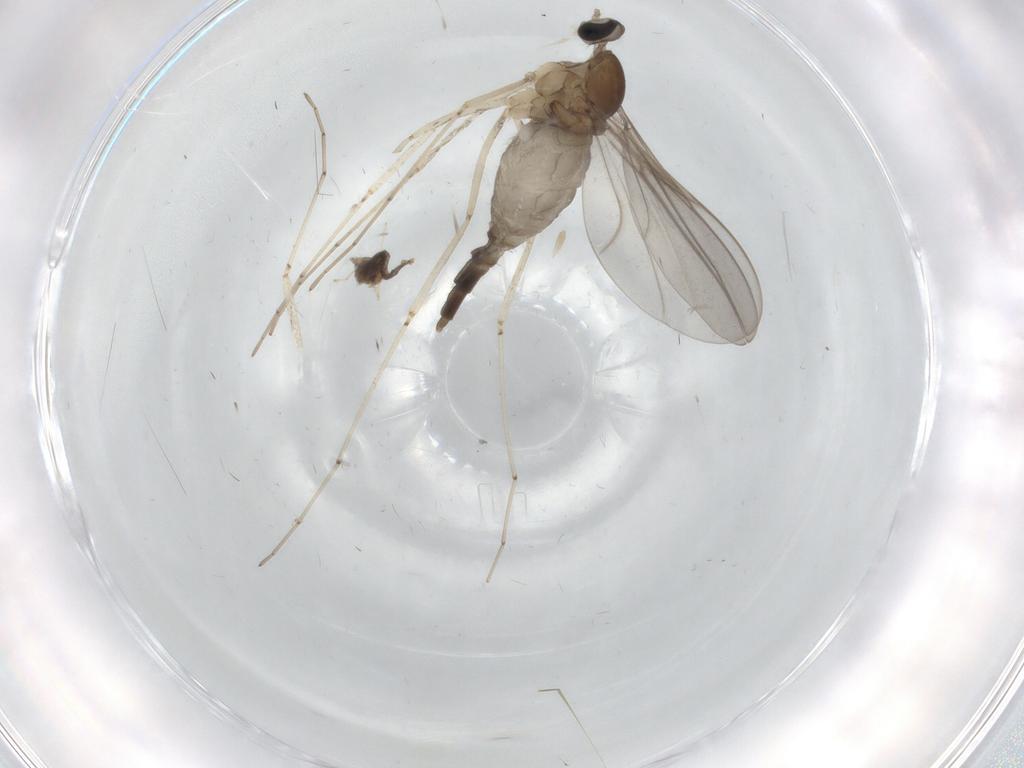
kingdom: Animalia
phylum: Arthropoda
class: Insecta
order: Diptera
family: Cecidomyiidae
